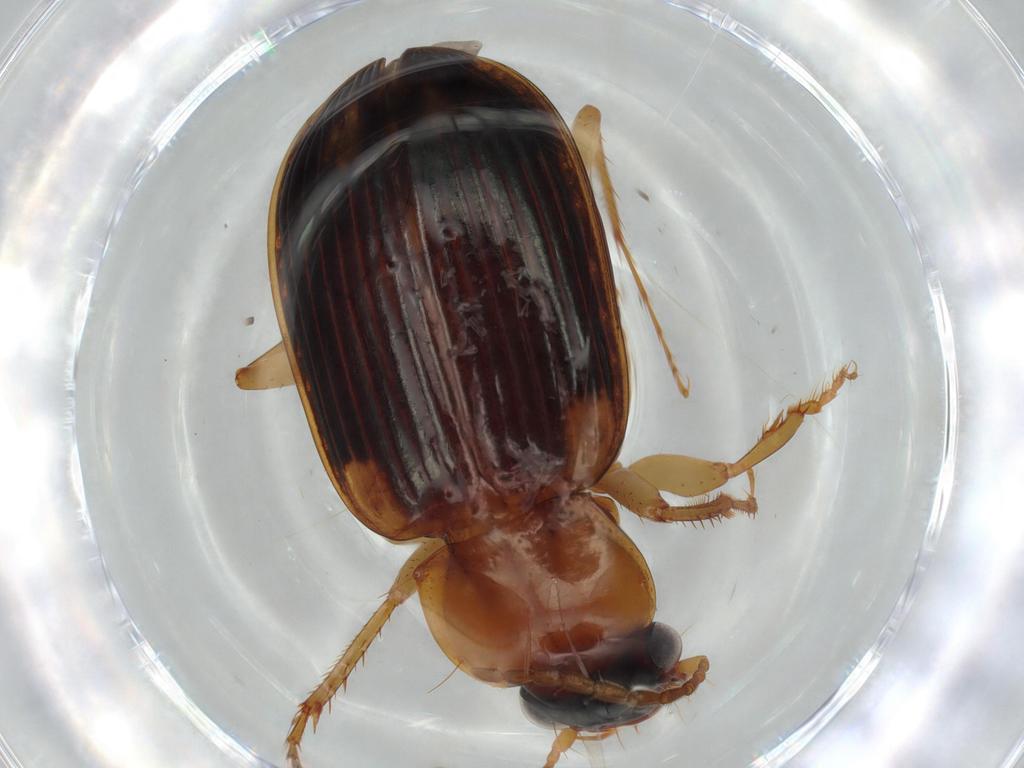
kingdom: Animalia
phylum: Arthropoda
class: Insecta
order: Coleoptera
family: Carabidae
